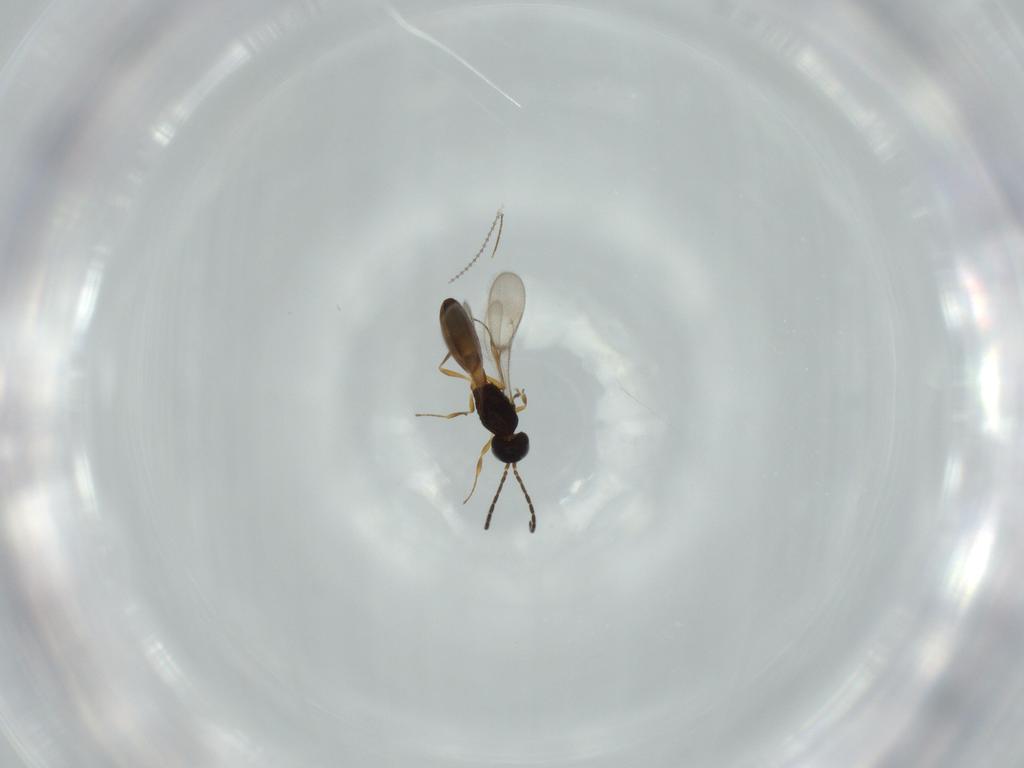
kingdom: Animalia
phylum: Arthropoda
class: Insecta
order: Hymenoptera
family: Scelionidae
